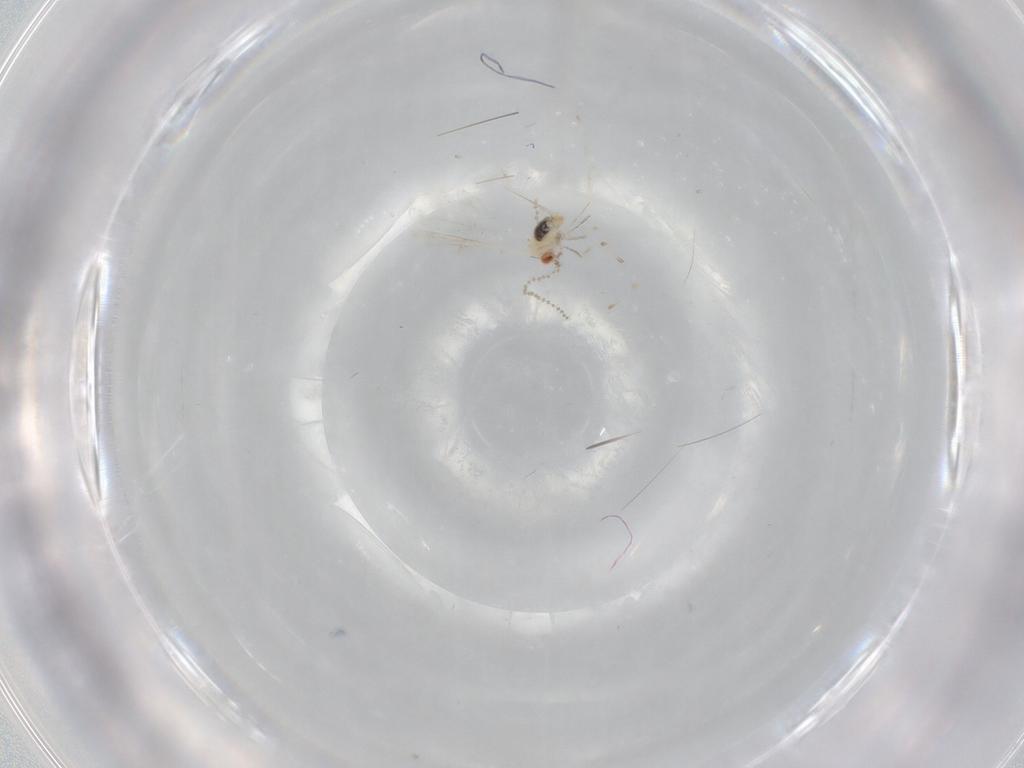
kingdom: Animalia
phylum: Arthropoda
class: Insecta
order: Diptera
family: Cecidomyiidae
